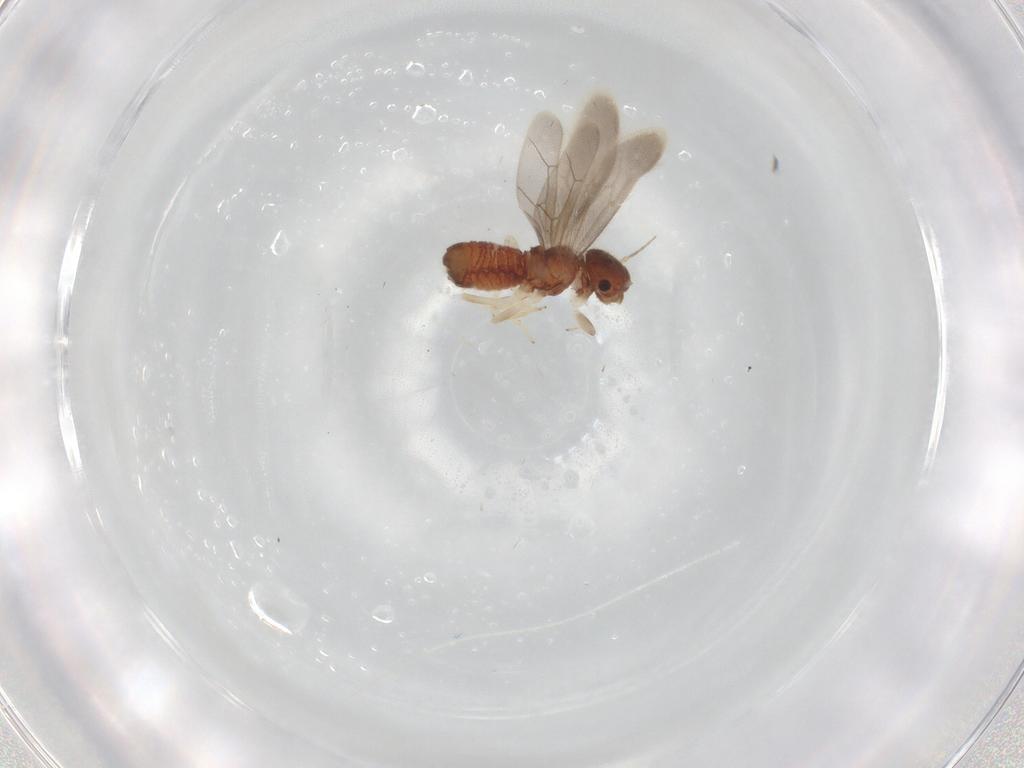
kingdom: Animalia
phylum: Arthropoda
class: Insecta
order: Psocodea
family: Lepidopsocidae
